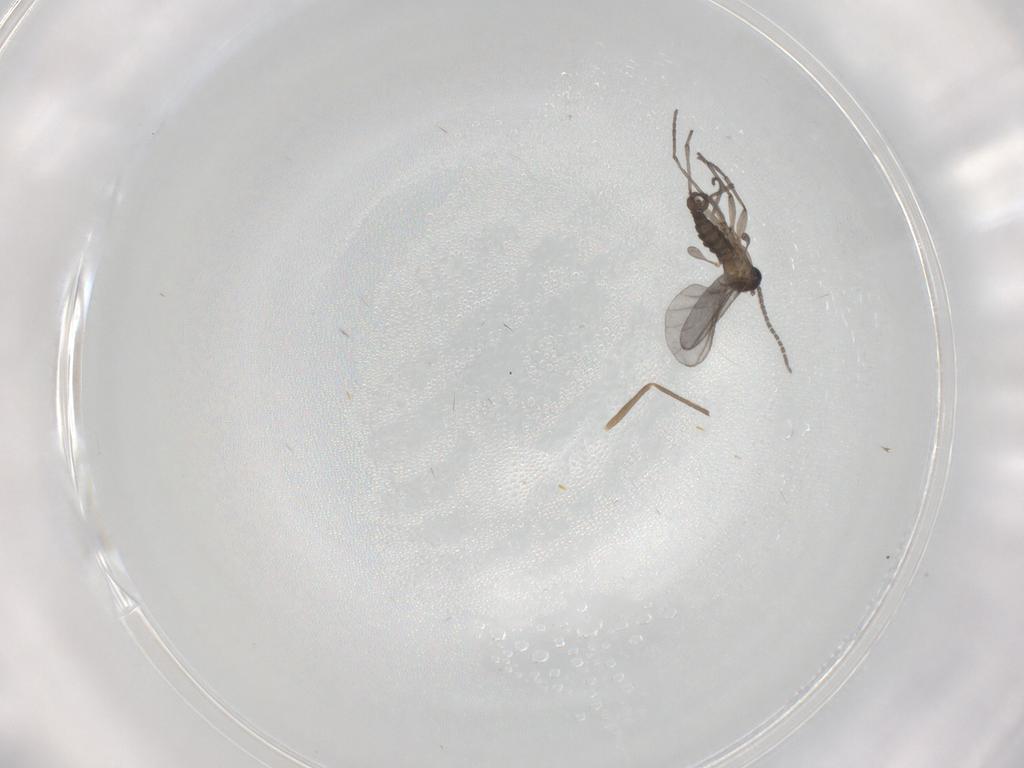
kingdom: Animalia
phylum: Arthropoda
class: Insecta
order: Diptera
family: Sciaridae
